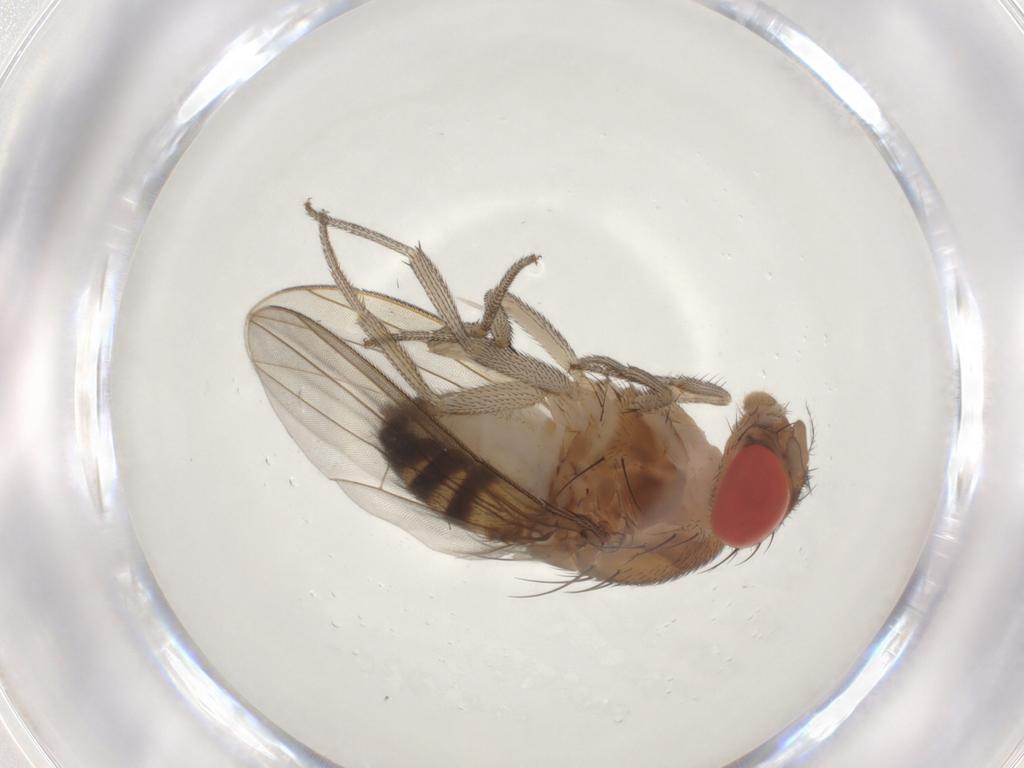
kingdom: Animalia
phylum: Arthropoda
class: Insecta
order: Diptera
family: Drosophilidae
